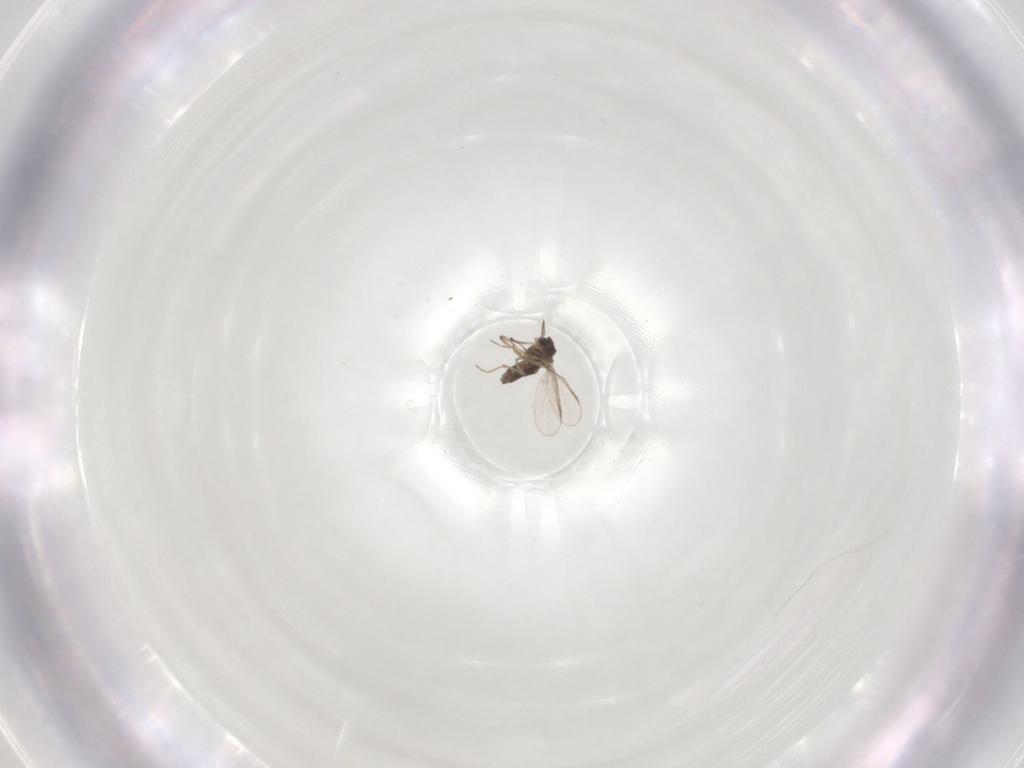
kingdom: Animalia
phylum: Arthropoda
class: Insecta
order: Diptera
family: Chironomidae
